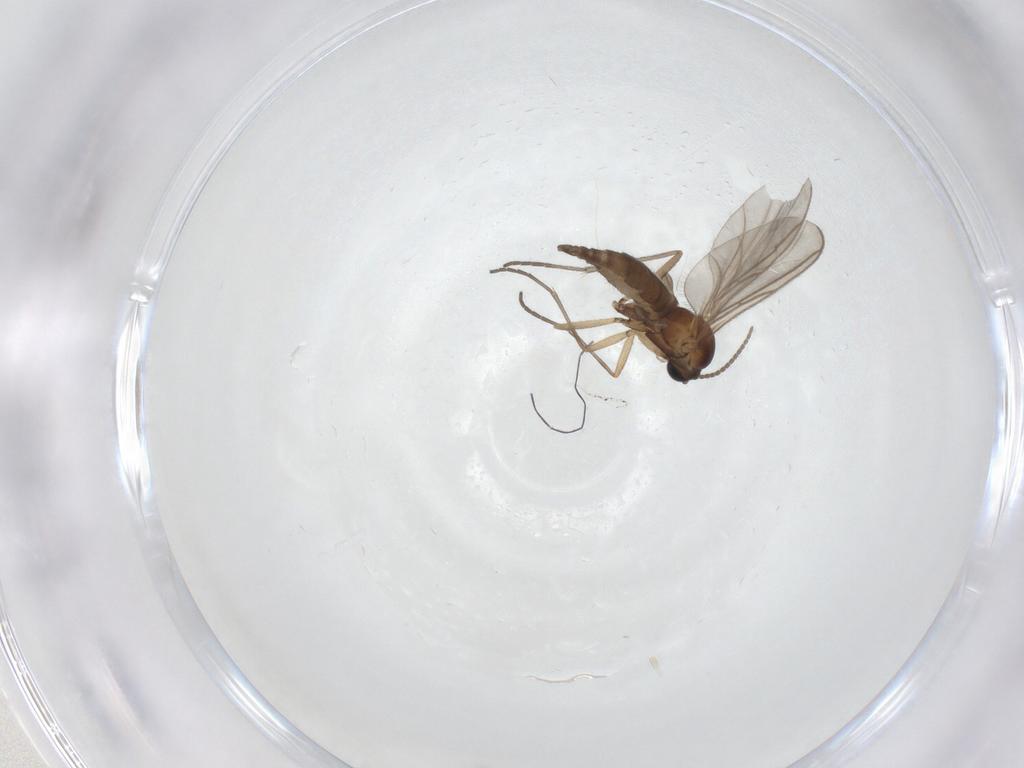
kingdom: Animalia
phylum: Arthropoda
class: Insecta
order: Diptera
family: Sciaridae
